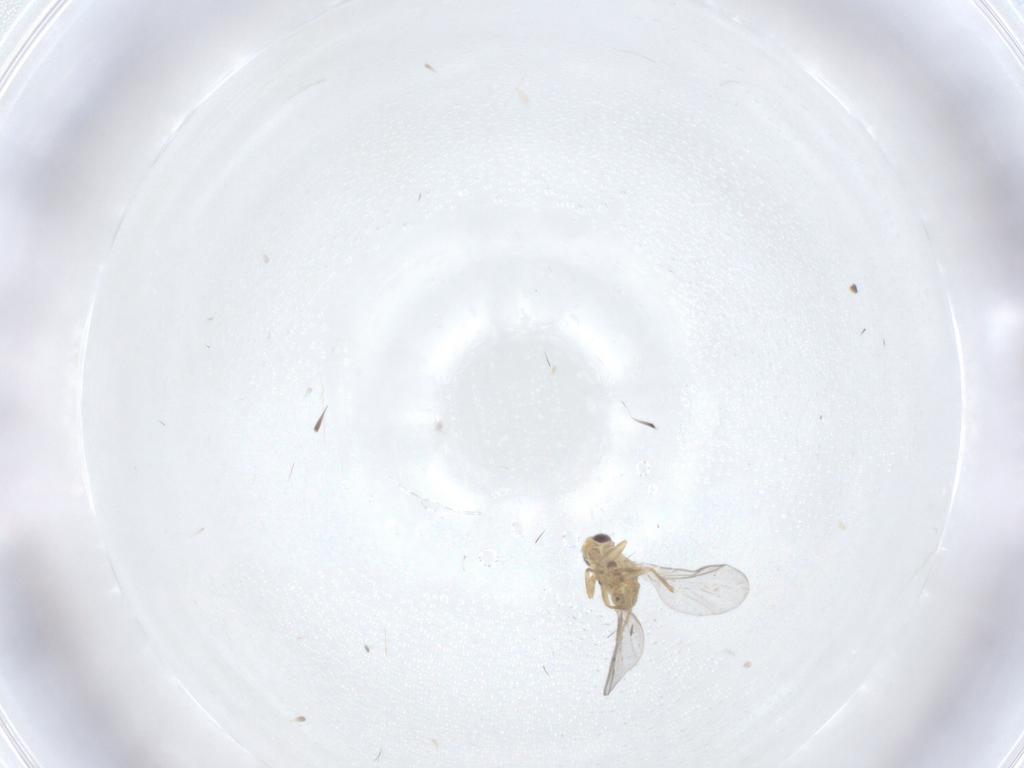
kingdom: Animalia
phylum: Arthropoda
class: Insecta
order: Diptera
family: Agromyzidae
